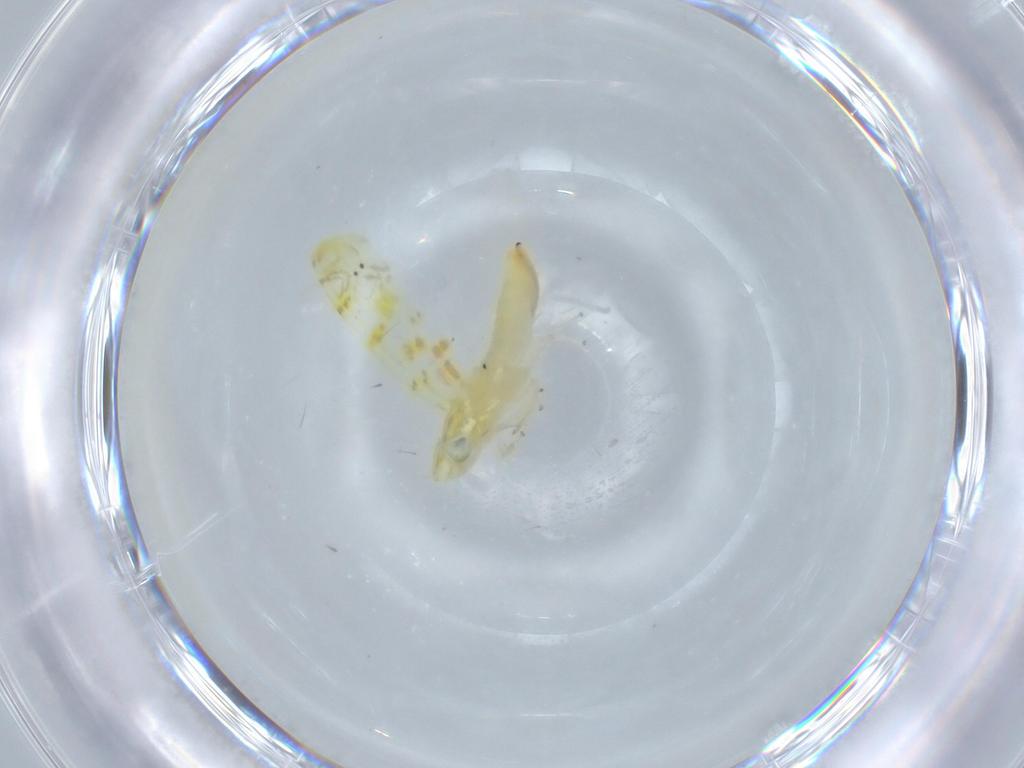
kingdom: Animalia
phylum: Arthropoda
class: Insecta
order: Hemiptera
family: Cicadellidae
